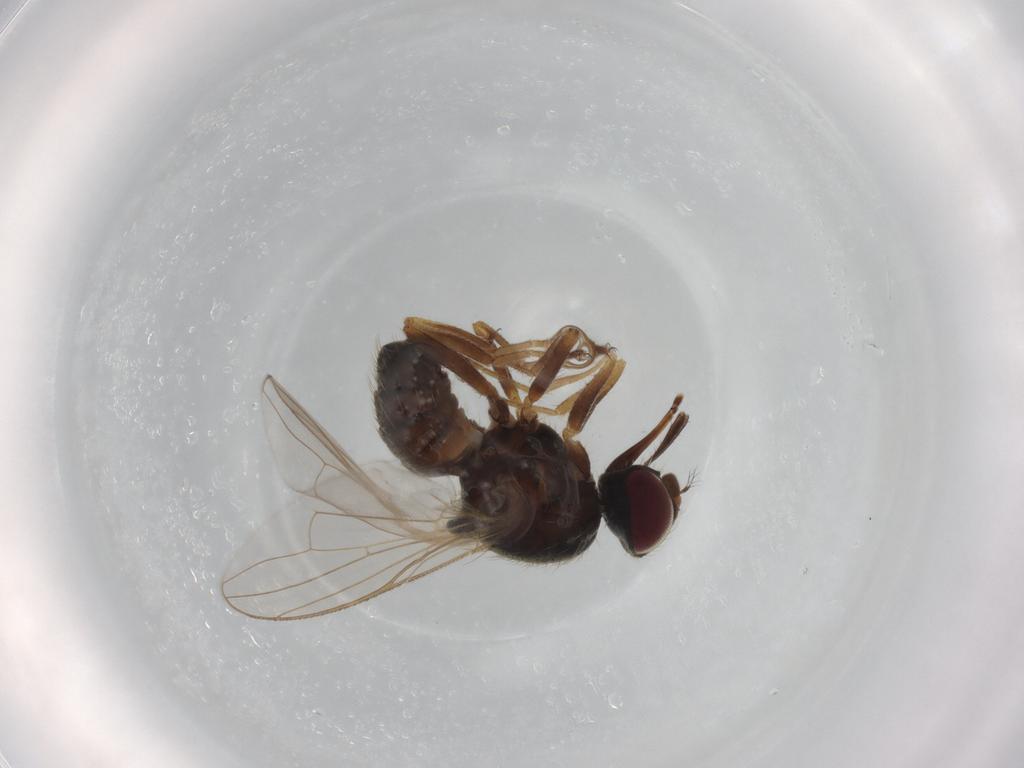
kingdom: Animalia
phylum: Arthropoda
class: Insecta
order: Diptera
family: Muscidae
